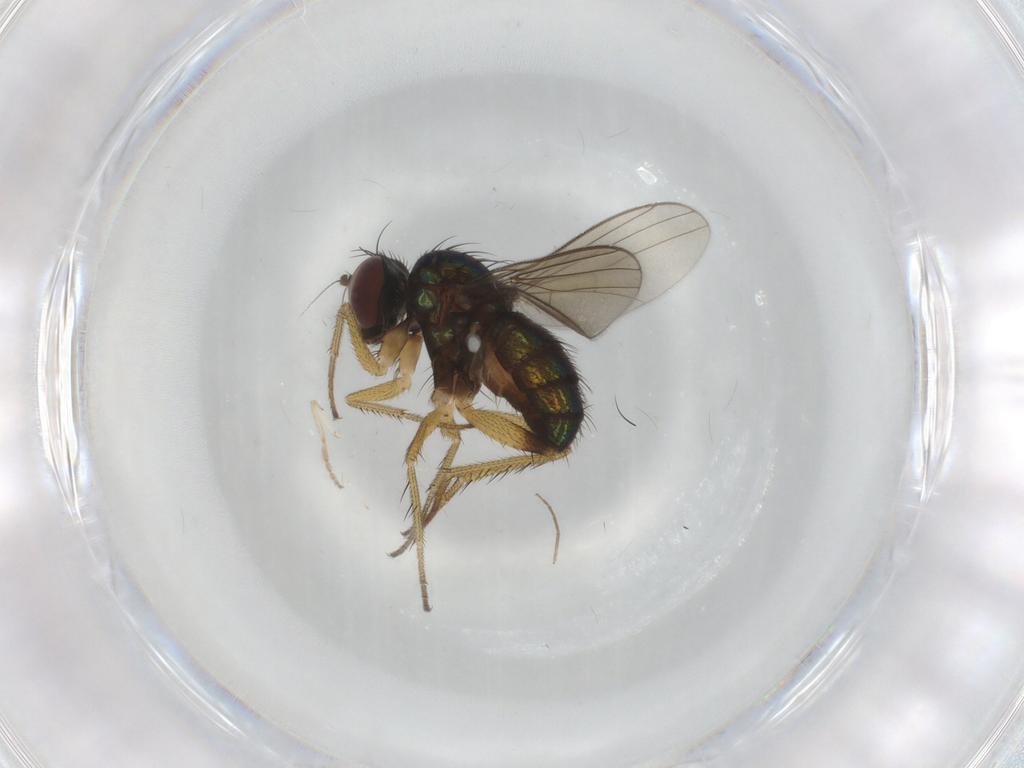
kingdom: Animalia
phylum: Arthropoda
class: Insecta
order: Diptera
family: Dolichopodidae
